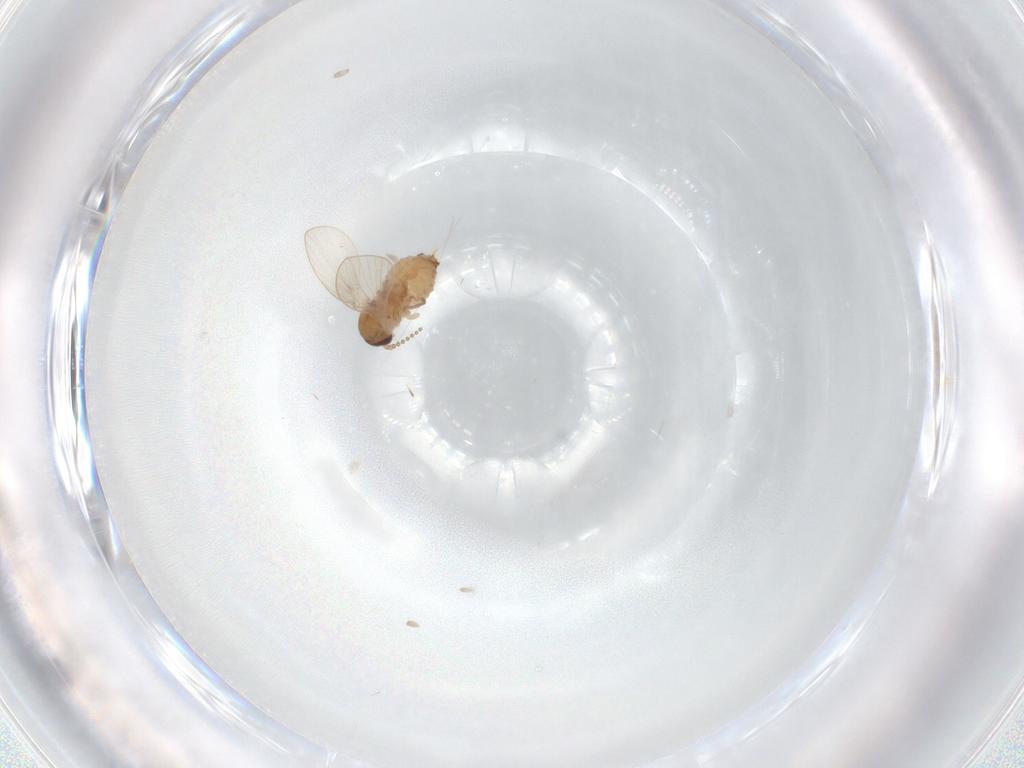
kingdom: Animalia
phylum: Arthropoda
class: Insecta
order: Diptera
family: Psychodidae
